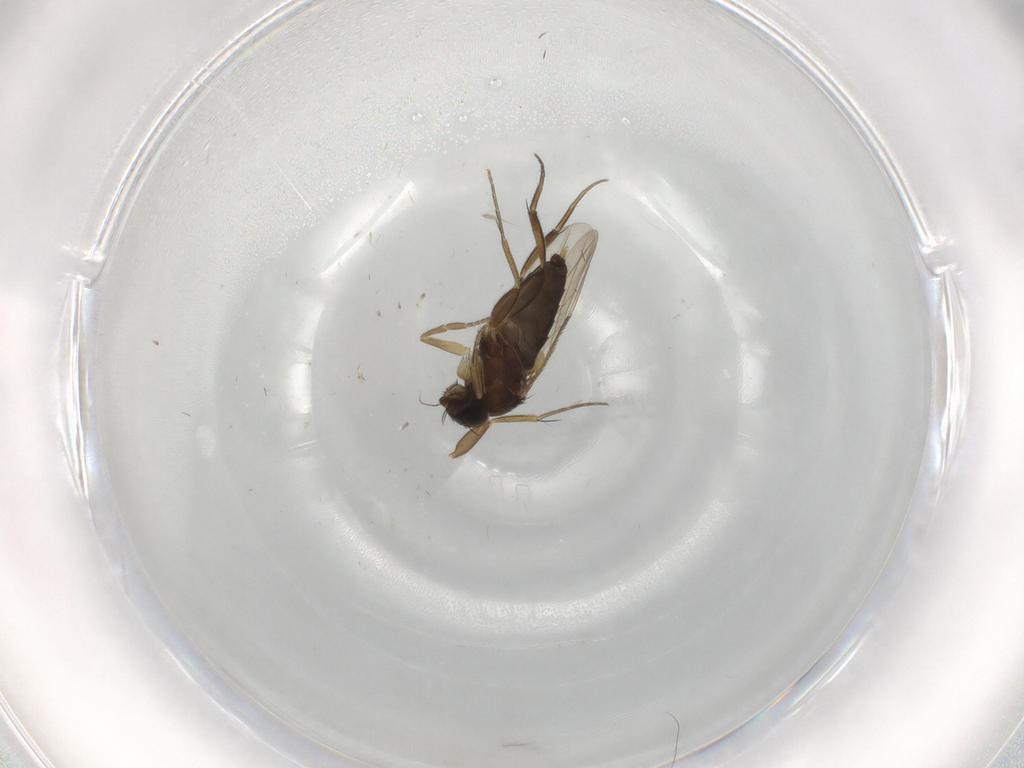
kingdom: Animalia
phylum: Arthropoda
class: Insecta
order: Diptera
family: Phoridae
